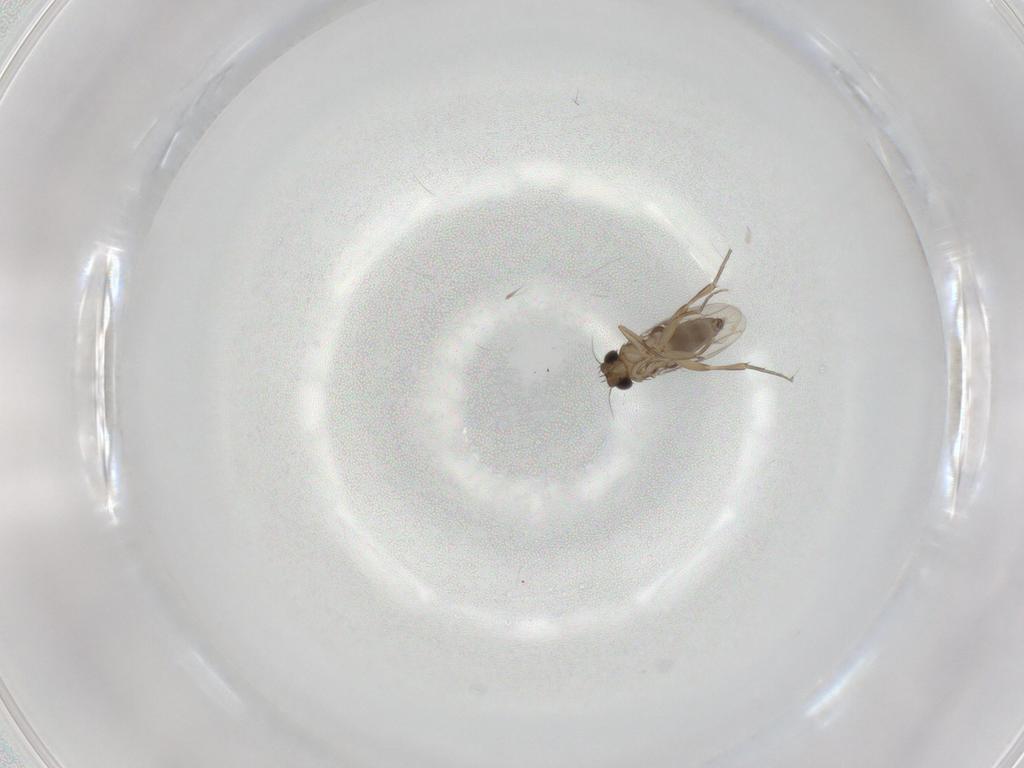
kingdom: Animalia
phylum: Arthropoda
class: Insecta
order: Diptera
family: Phoridae
